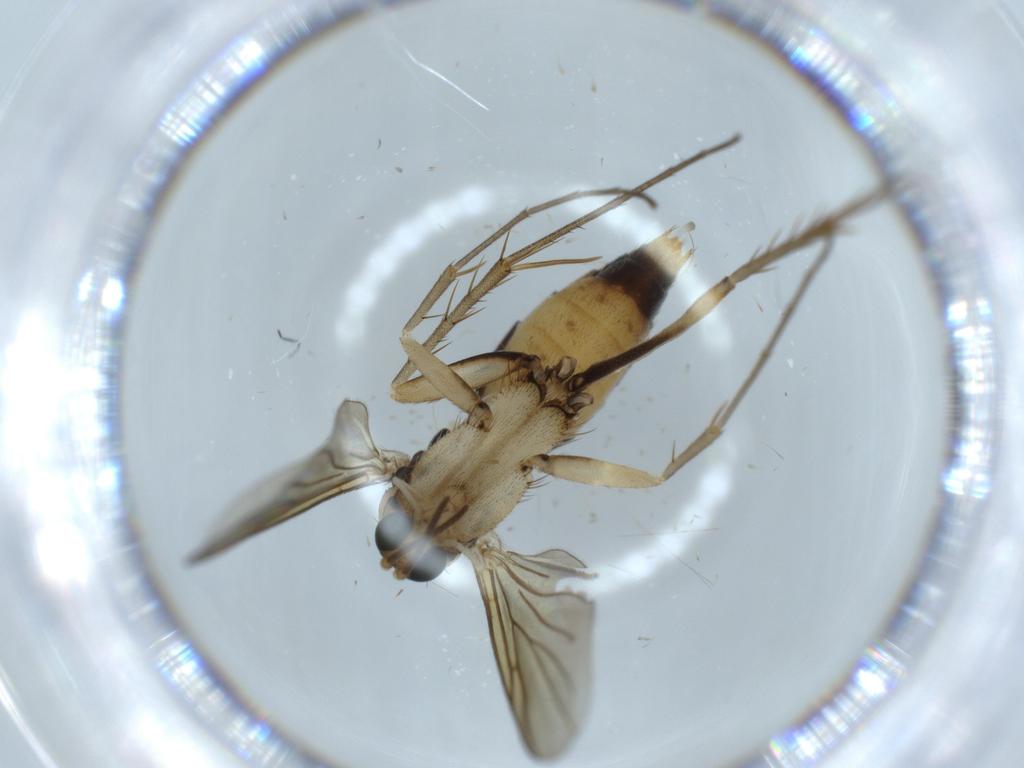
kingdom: Animalia
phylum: Arthropoda
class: Insecta
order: Diptera
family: Mycetophilidae
